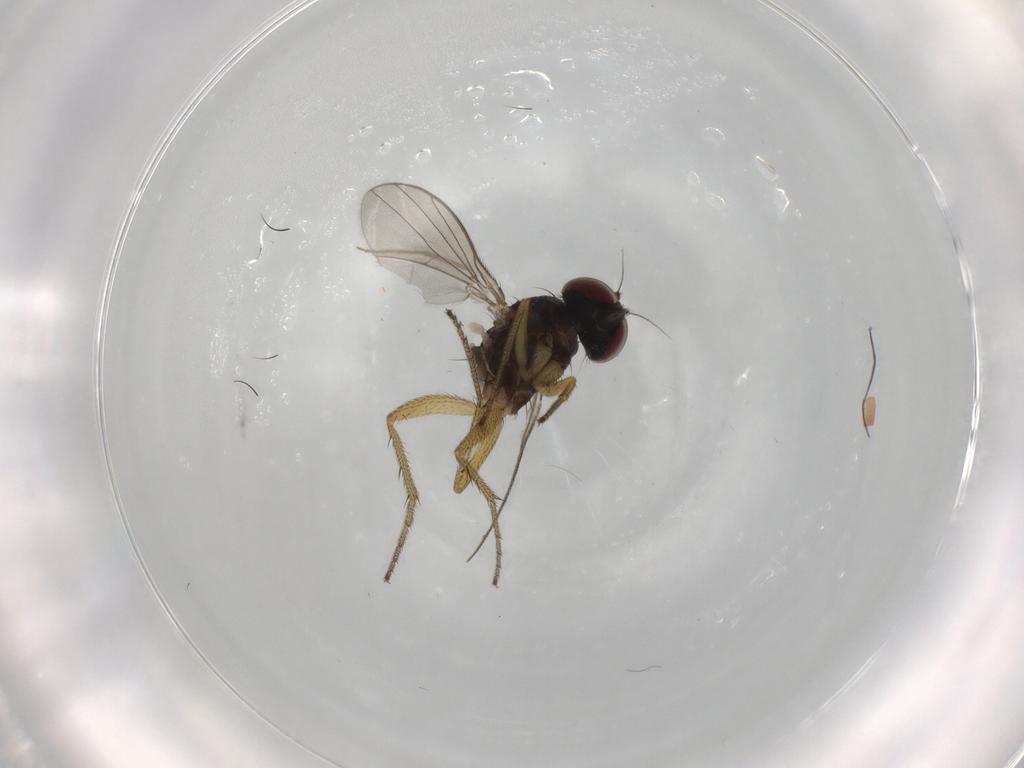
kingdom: Animalia
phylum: Arthropoda
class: Insecta
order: Diptera
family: Dolichopodidae
